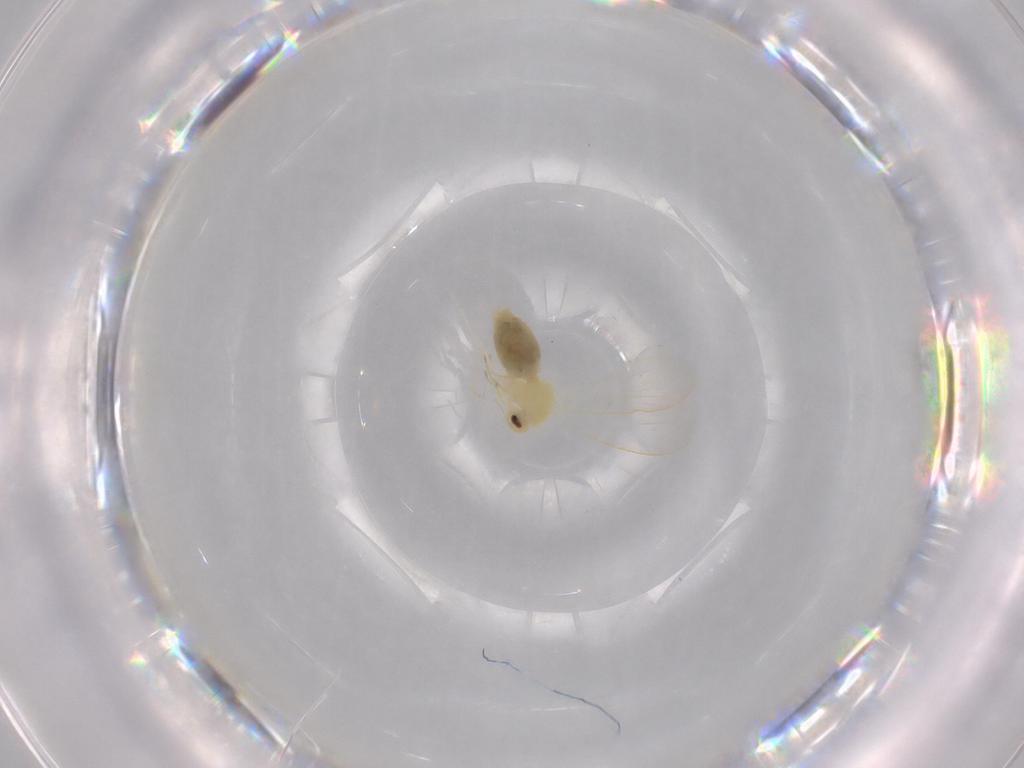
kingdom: Animalia
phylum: Arthropoda
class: Insecta
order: Hemiptera
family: Aleyrodidae
